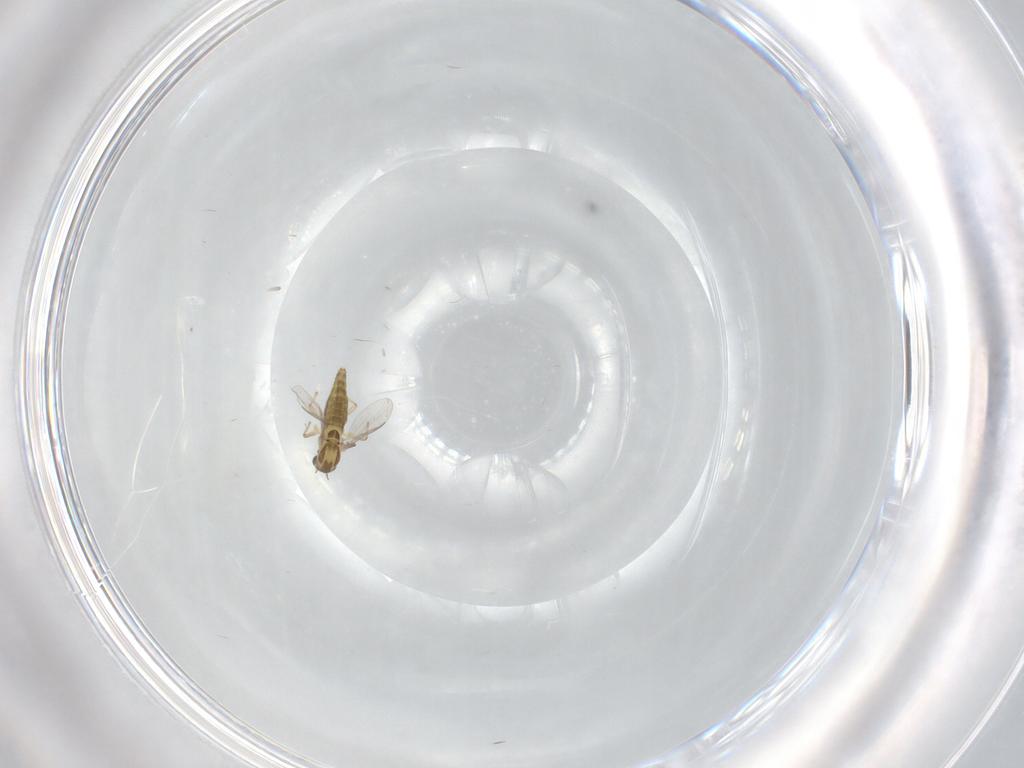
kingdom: Animalia
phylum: Arthropoda
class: Insecta
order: Diptera
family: Chironomidae
